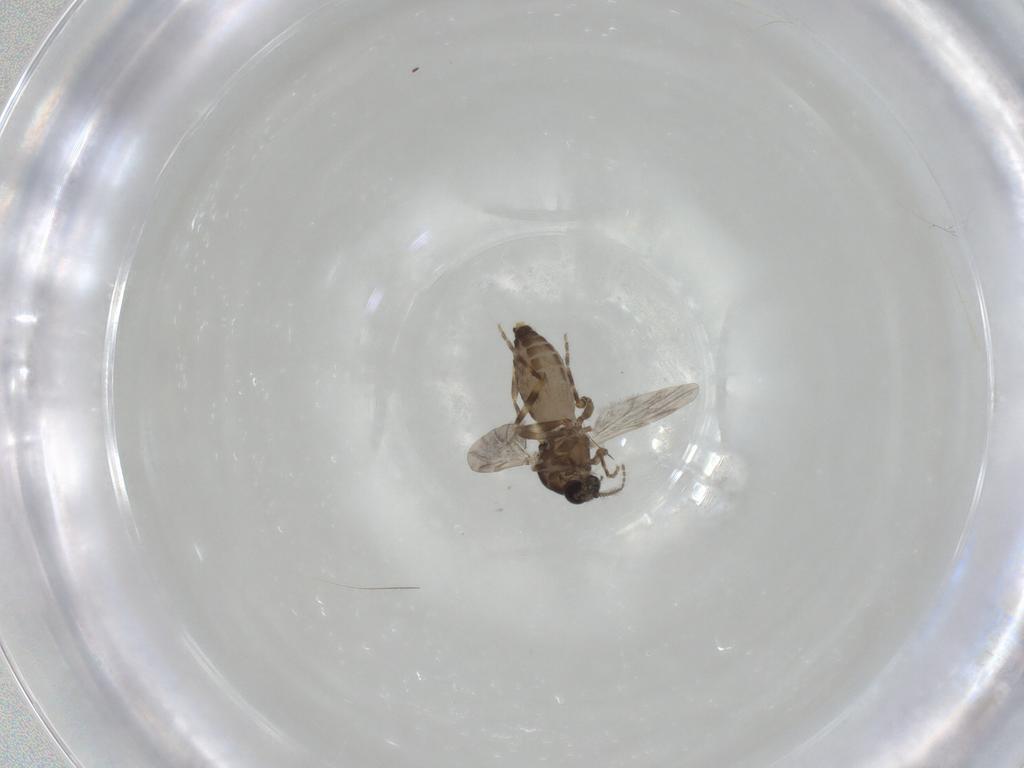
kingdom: Animalia
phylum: Arthropoda
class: Insecta
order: Diptera
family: Ceratopogonidae
